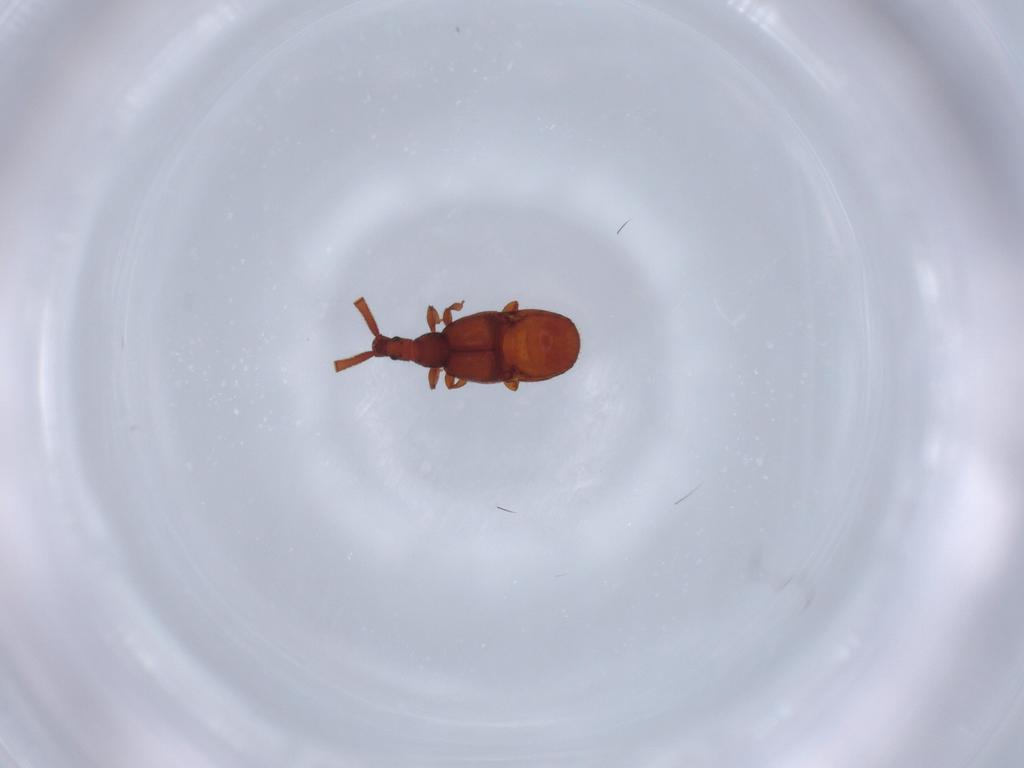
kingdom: Animalia
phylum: Arthropoda
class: Insecta
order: Coleoptera
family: Staphylinidae
